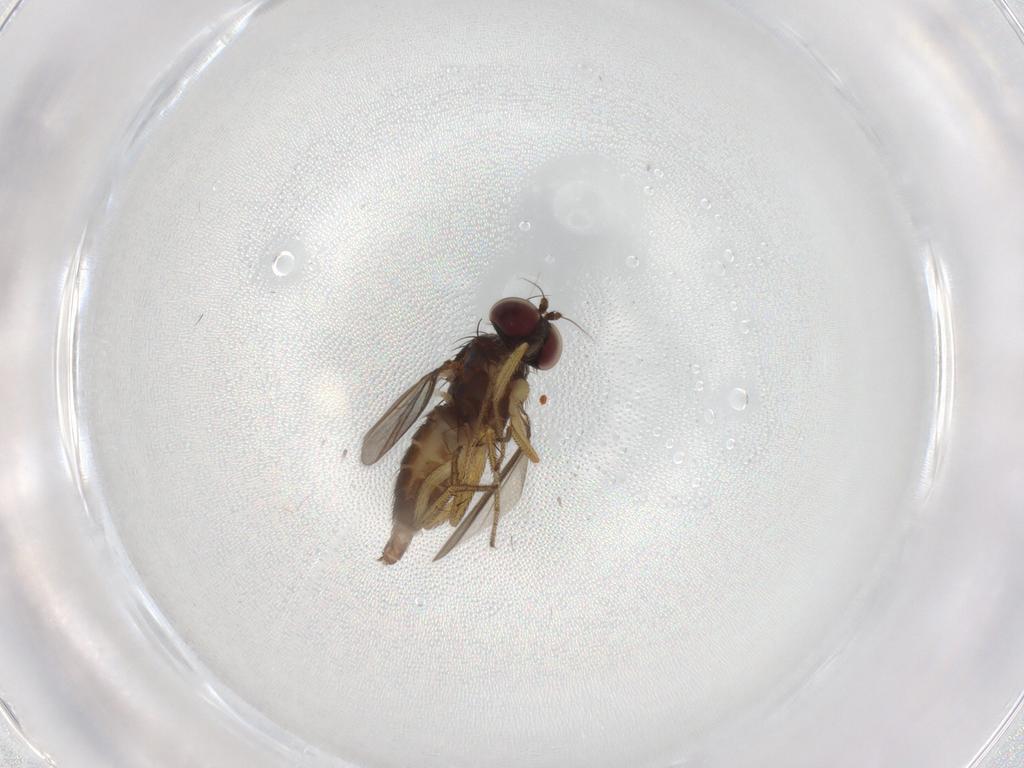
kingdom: Animalia
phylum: Arthropoda
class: Insecta
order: Diptera
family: Dolichopodidae
